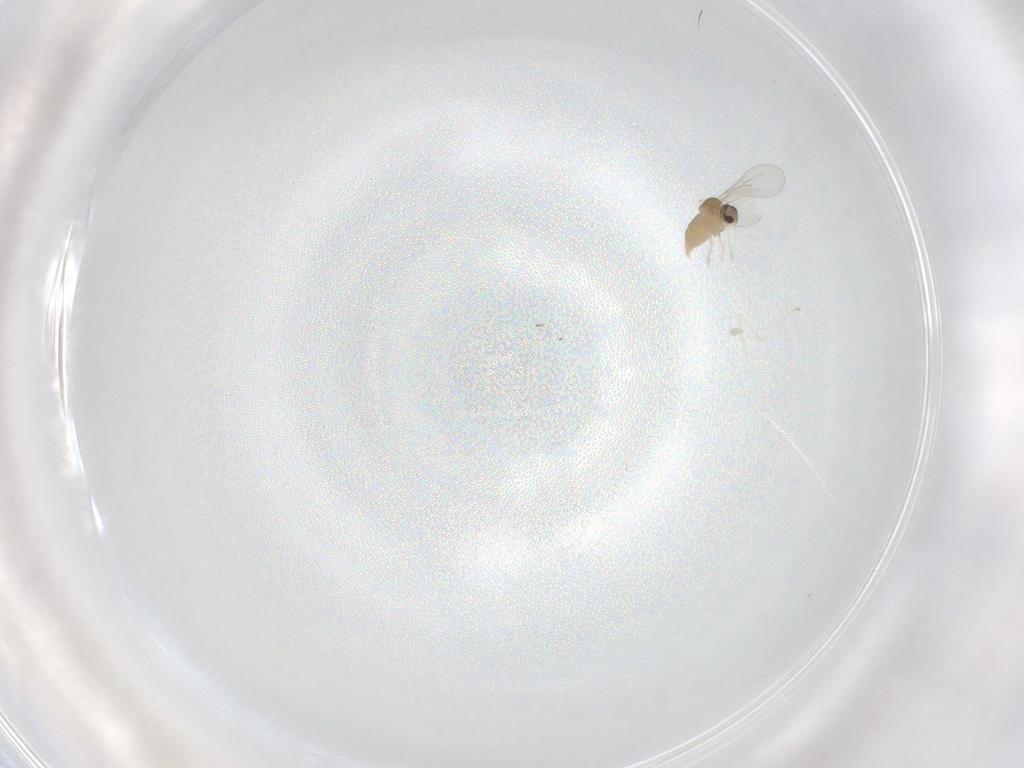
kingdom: Animalia
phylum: Arthropoda
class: Insecta
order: Diptera
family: Cecidomyiidae
